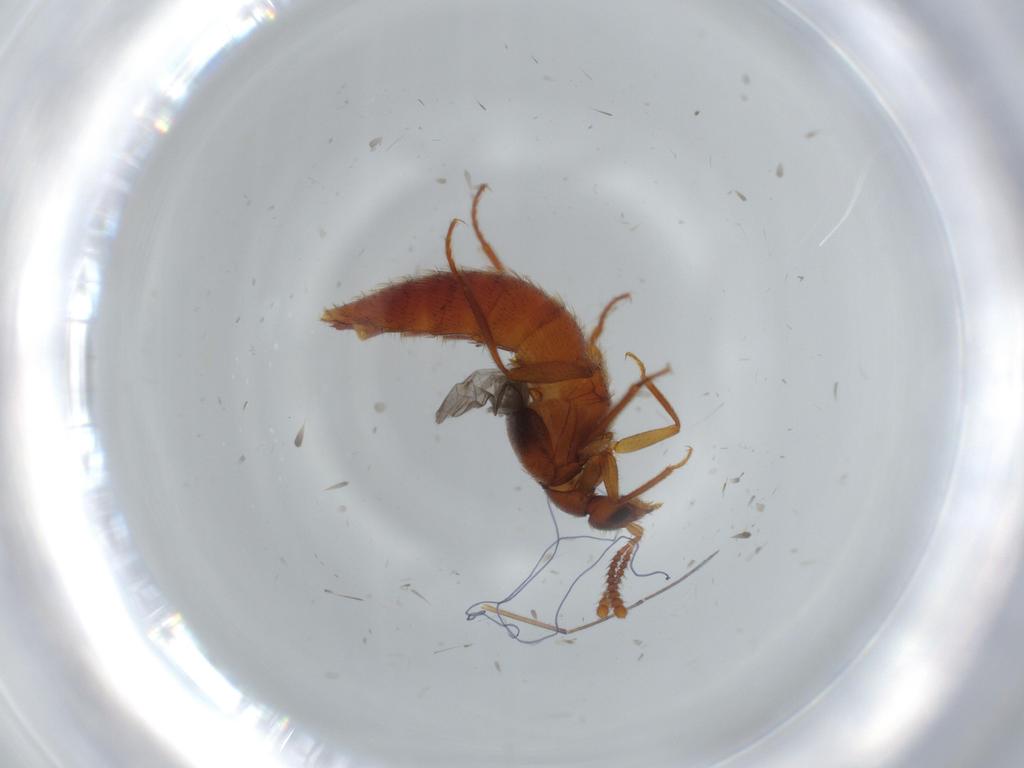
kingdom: Animalia
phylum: Arthropoda
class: Insecta
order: Coleoptera
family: Staphylinidae
